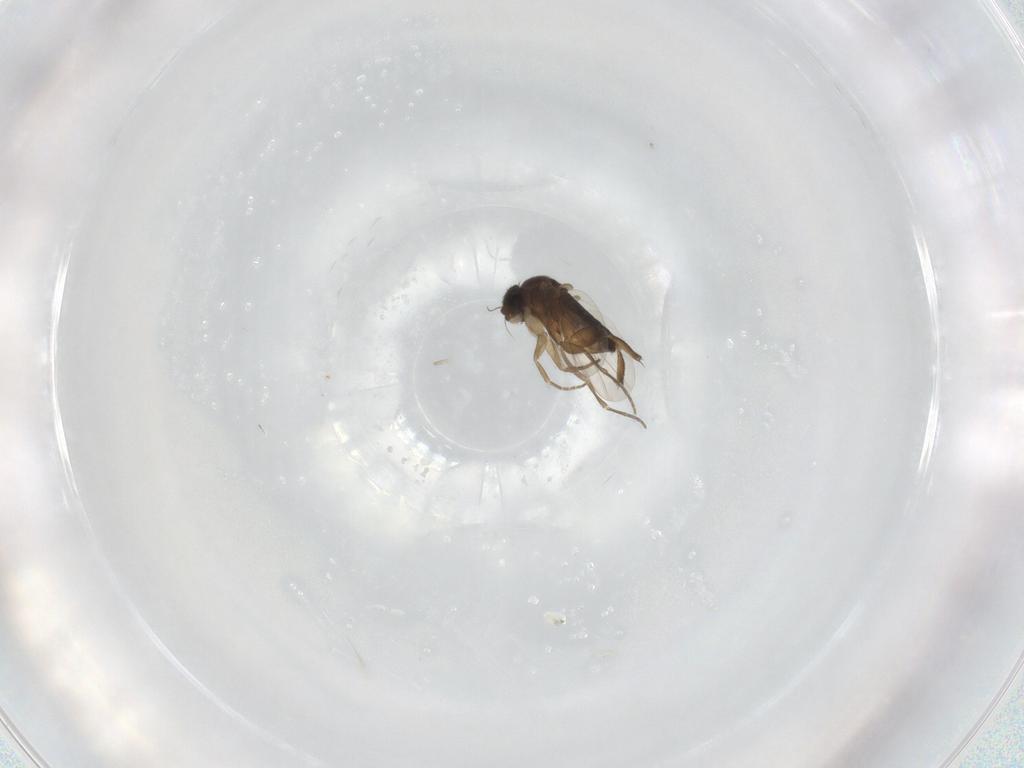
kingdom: Animalia
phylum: Arthropoda
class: Insecta
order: Diptera
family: Phoridae
